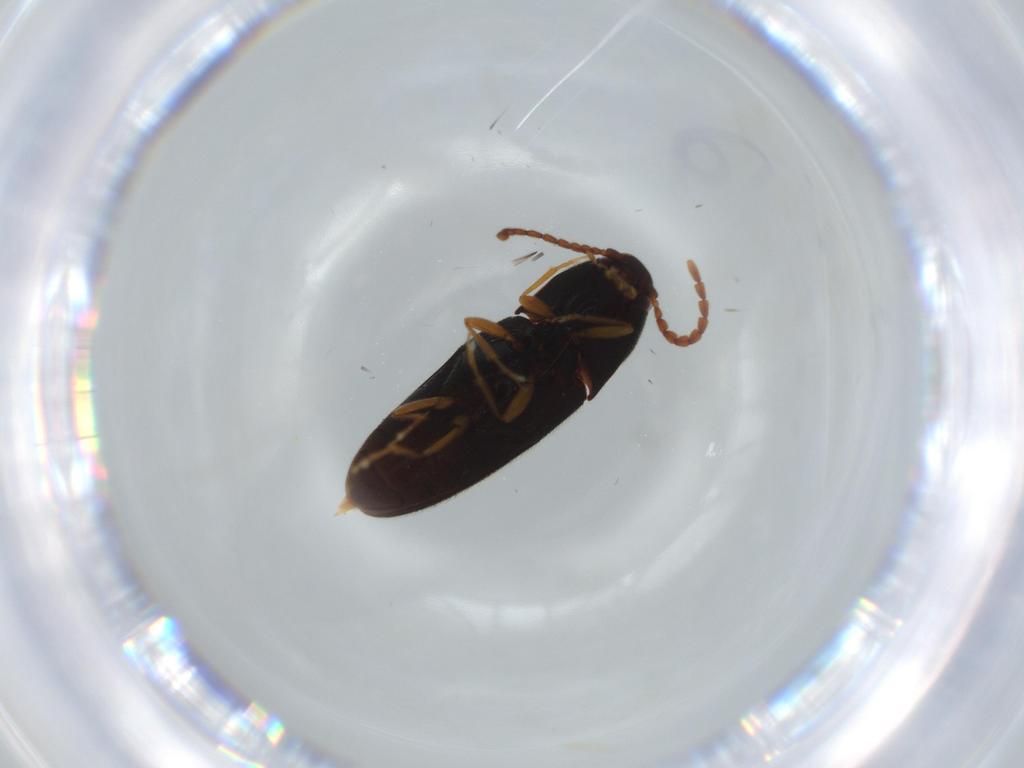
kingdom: Animalia
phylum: Arthropoda
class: Insecta
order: Coleoptera
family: Elateridae
